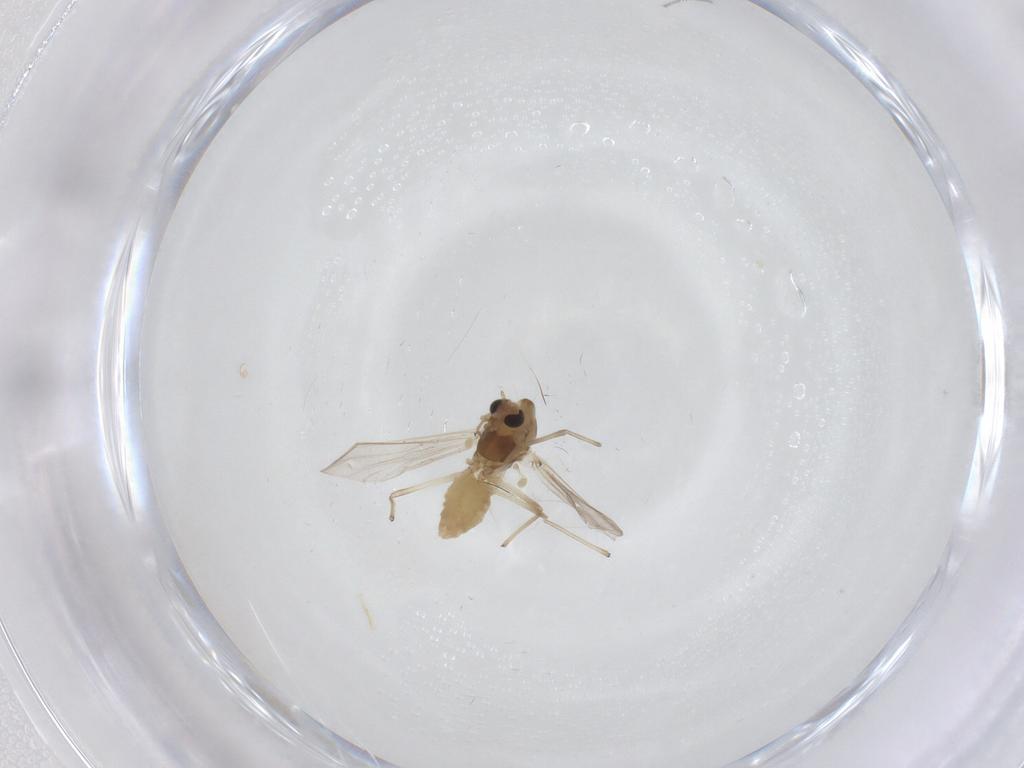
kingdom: Animalia
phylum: Arthropoda
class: Insecta
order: Diptera
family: Chironomidae
